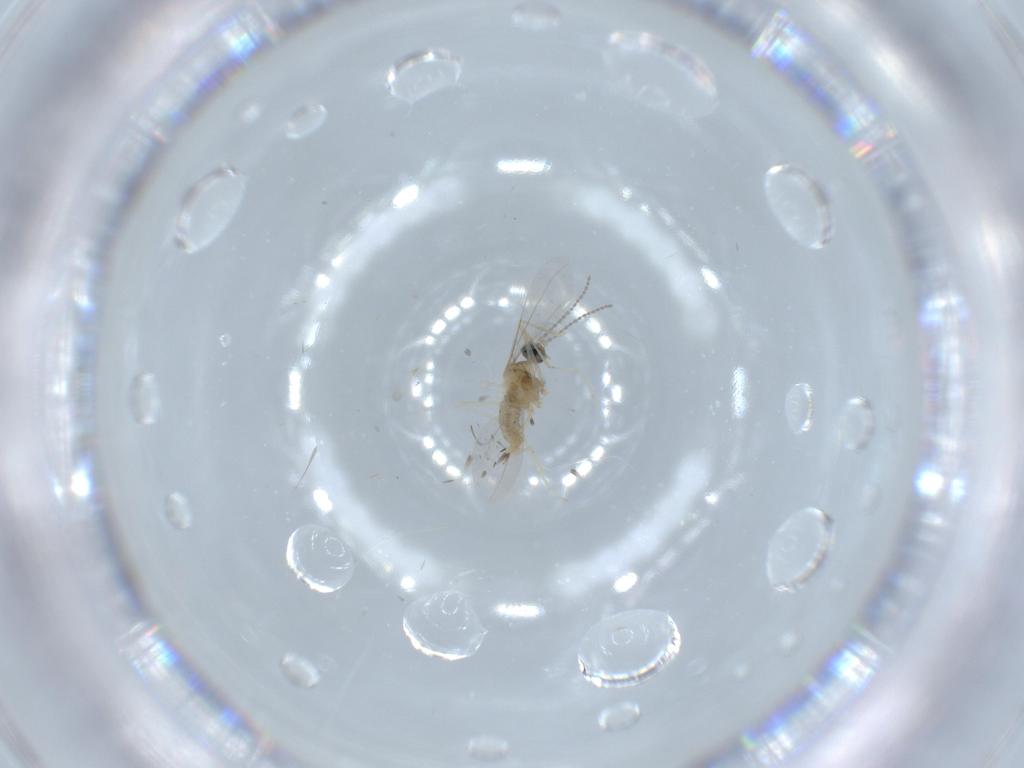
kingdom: Animalia
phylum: Arthropoda
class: Insecta
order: Diptera
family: Cecidomyiidae
